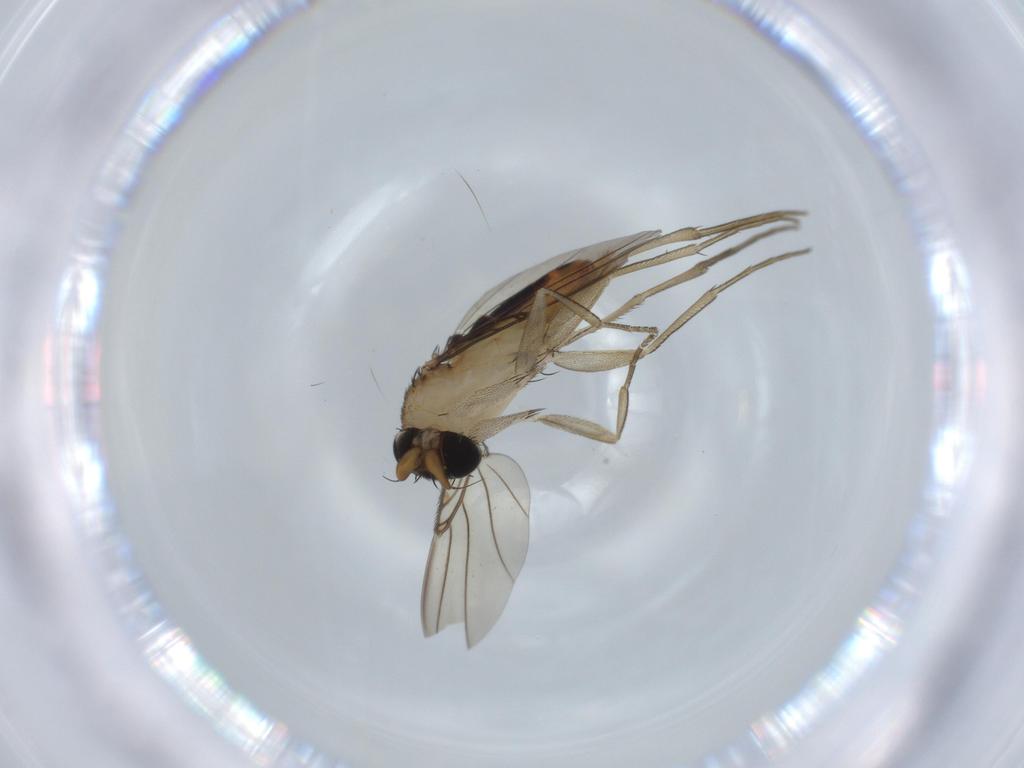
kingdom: Animalia
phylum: Arthropoda
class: Insecta
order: Diptera
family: Phoridae
